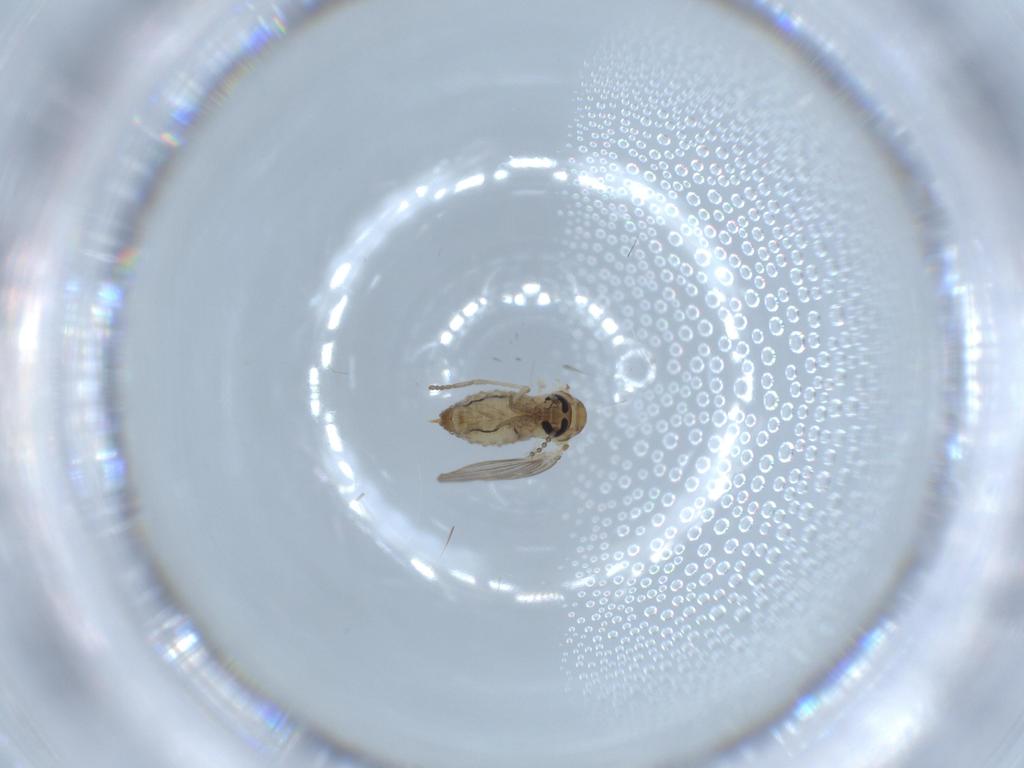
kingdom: Animalia
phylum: Arthropoda
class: Insecta
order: Diptera
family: Psychodidae
